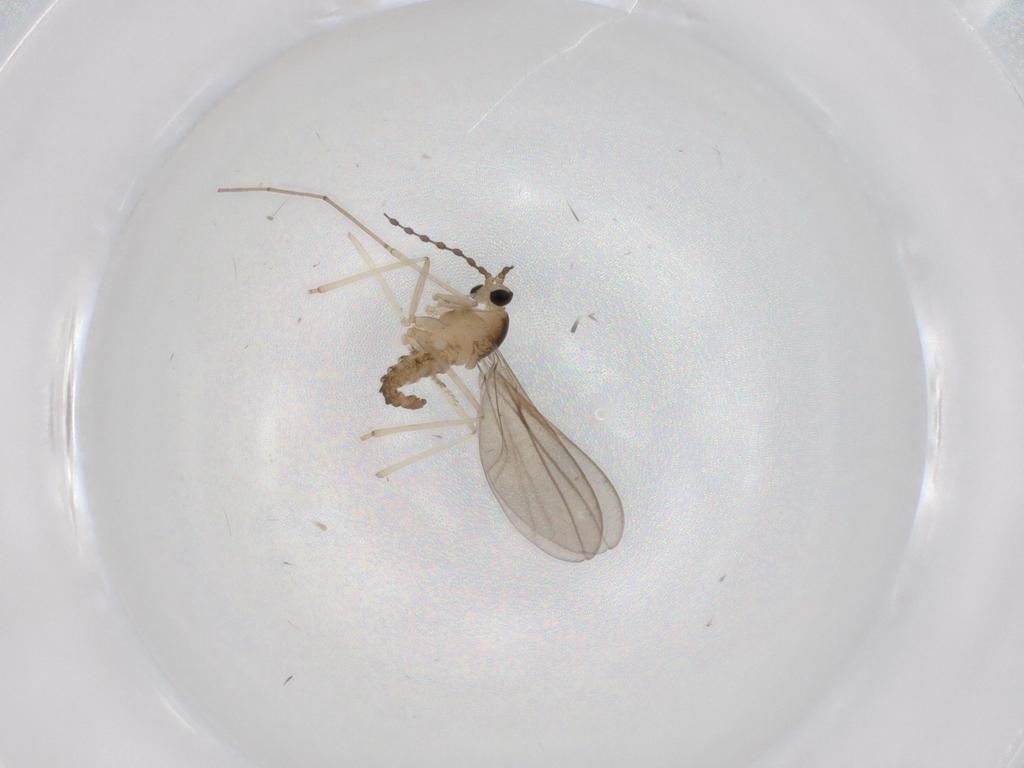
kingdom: Animalia
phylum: Arthropoda
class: Insecta
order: Diptera
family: Cecidomyiidae
